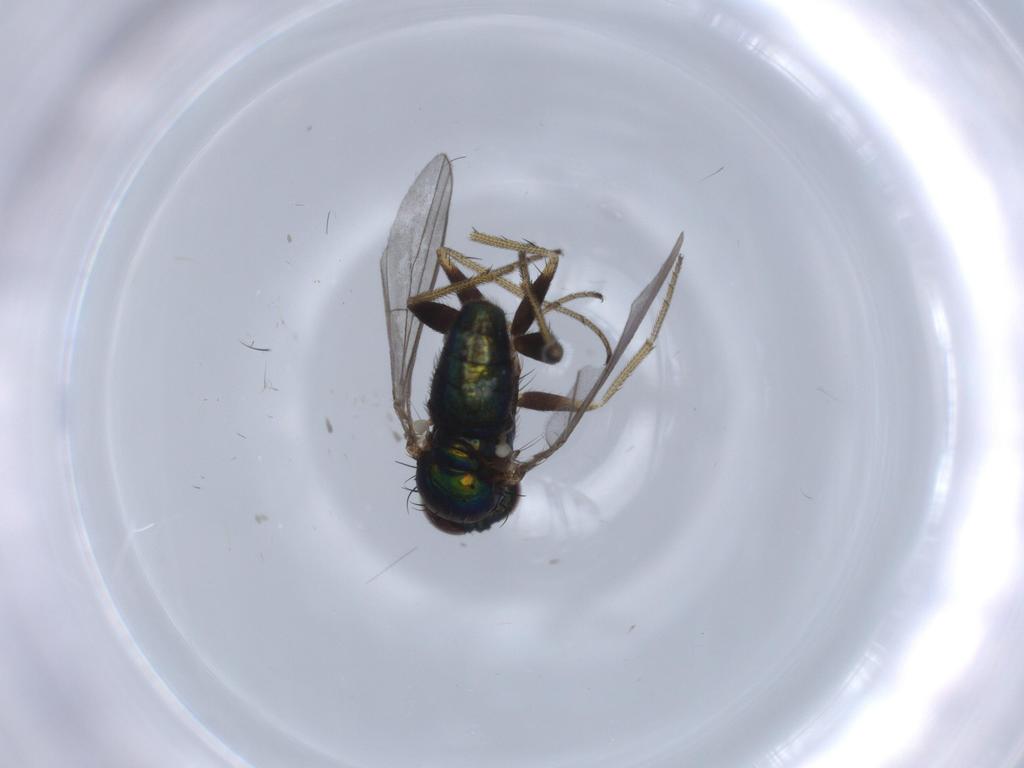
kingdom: Animalia
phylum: Arthropoda
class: Insecta
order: Diptera
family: Dolichopodidae
